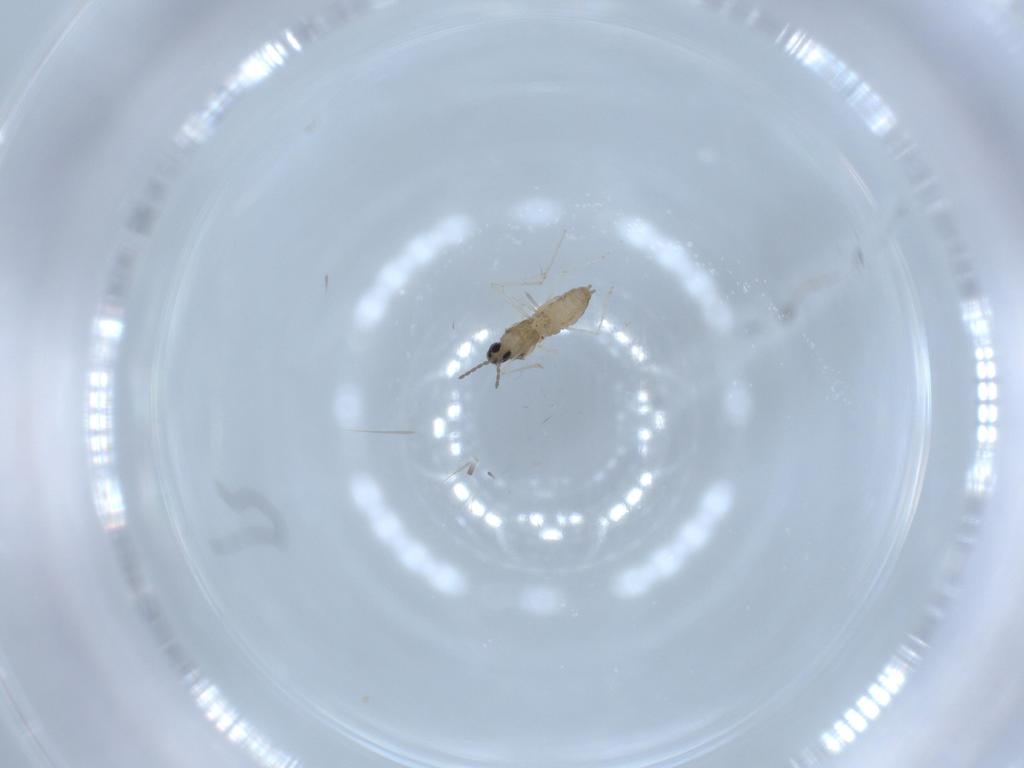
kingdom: Animalia
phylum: Arthropoda
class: Insecta
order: Diptera
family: Cecidomyiidae
